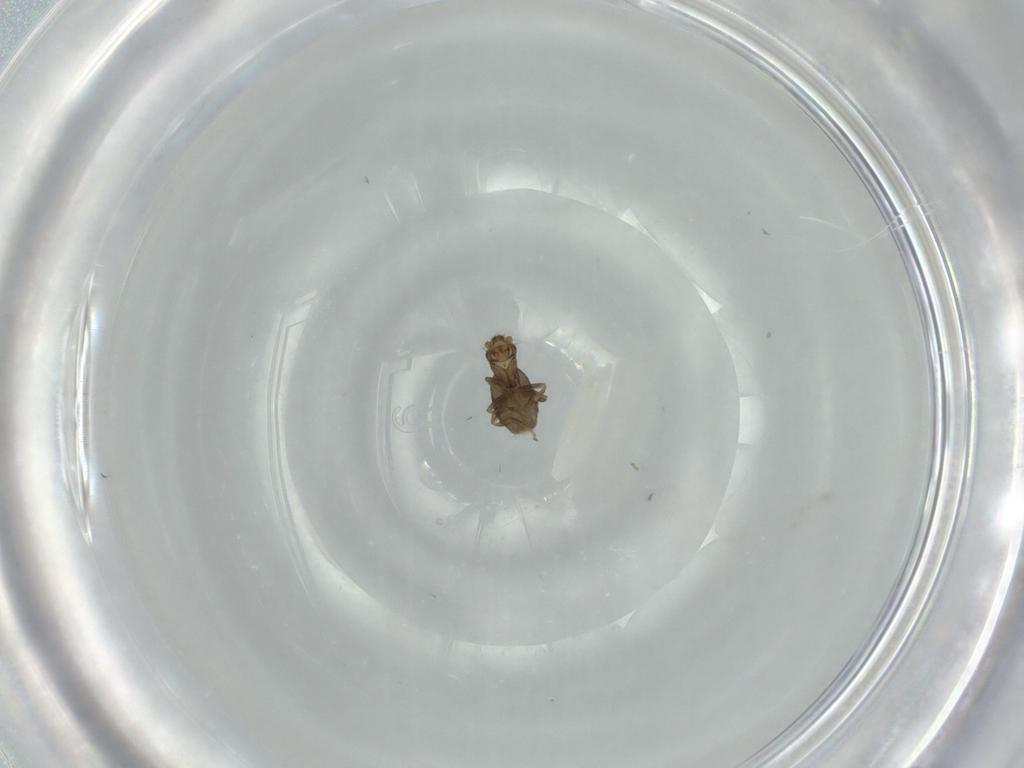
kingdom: Animalia
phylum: Arthropoda
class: Insecta
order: Diptera
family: Phoridae
